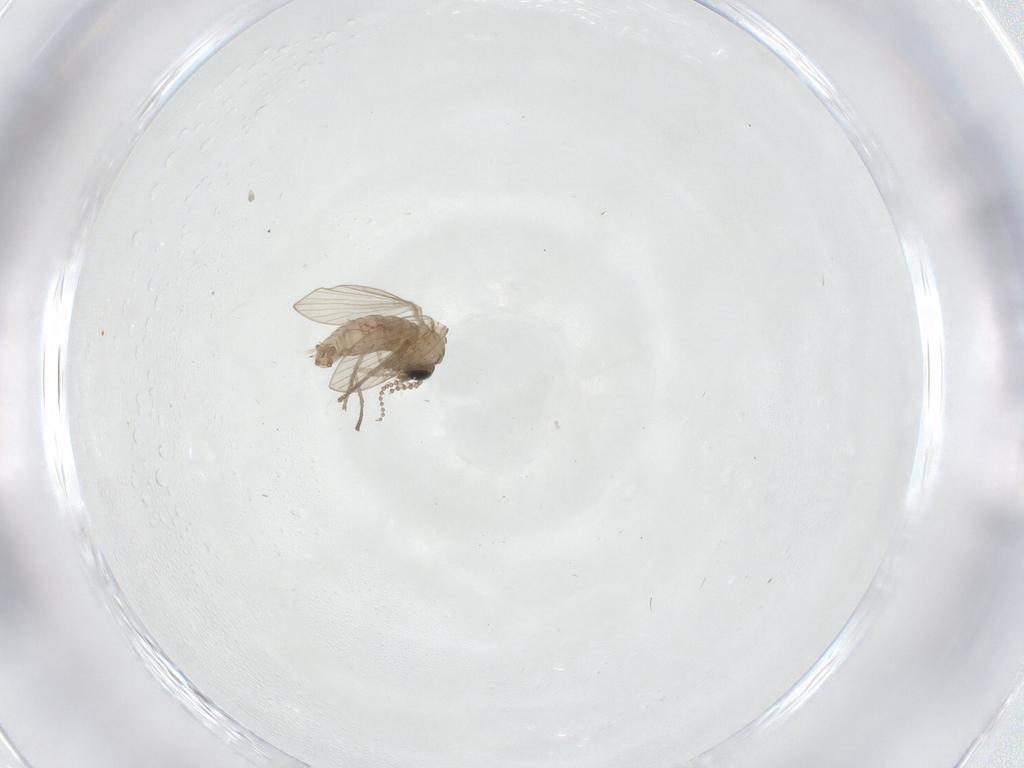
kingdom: Animalia
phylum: Arthropoda
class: Insecta
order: Diptera
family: Psychodidae
